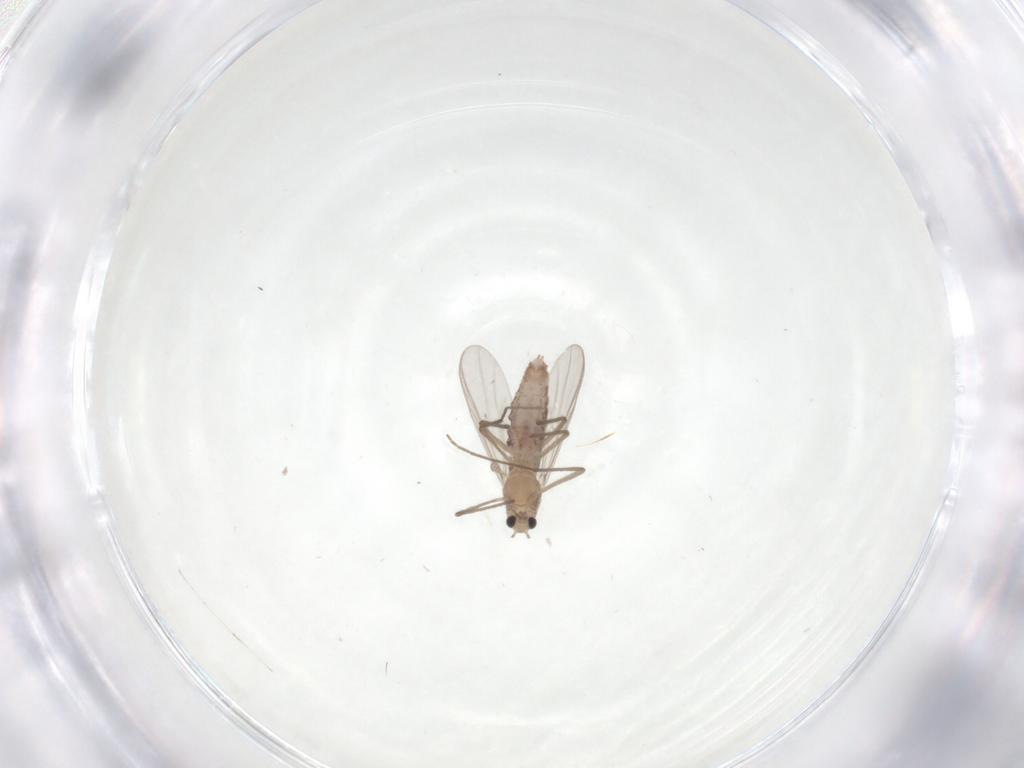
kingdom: Animalia
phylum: Arthropoda
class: Insecta
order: Diptera
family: Chironomidae
